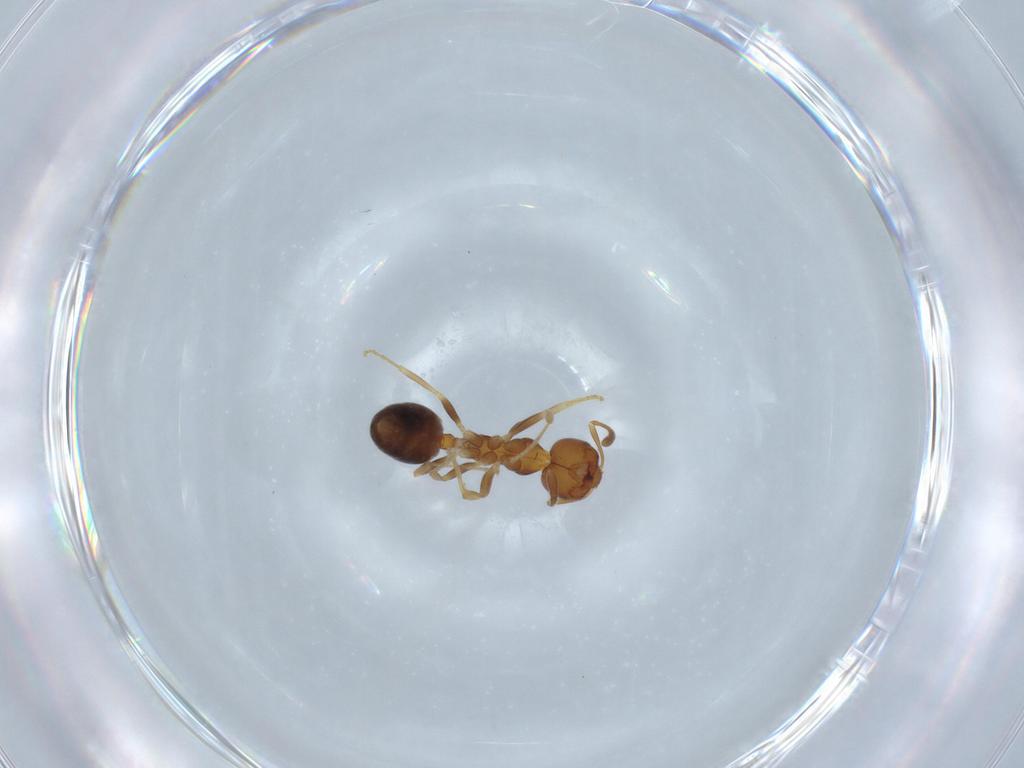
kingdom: Animalia
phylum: Arthropoda
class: Insecta
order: Hymenoptera
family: Formicidae
